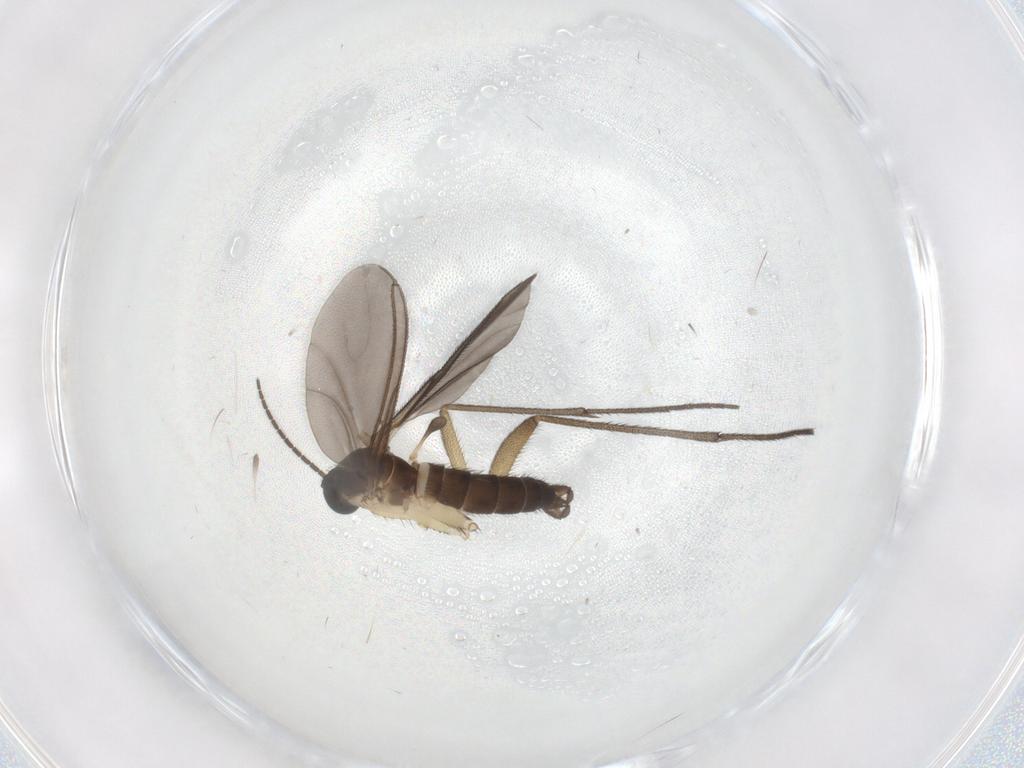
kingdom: Animalia
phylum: Arthropoda
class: Insecta
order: Diptera
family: Sciaridae
